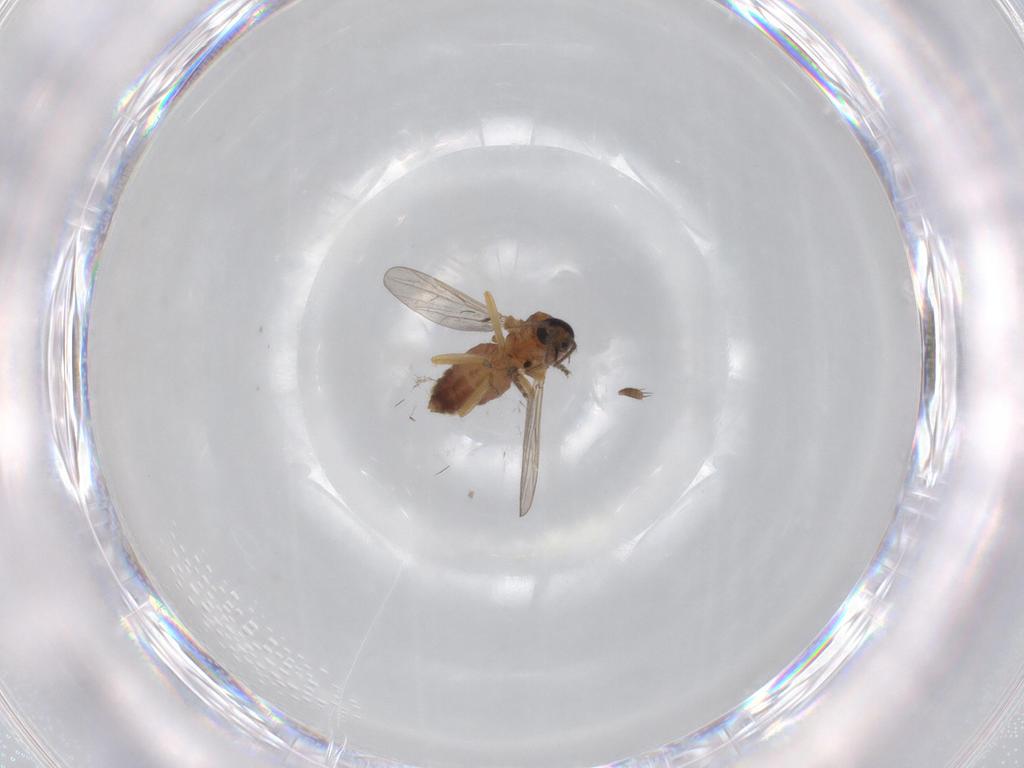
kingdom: Animalia
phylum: Arthropoda
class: Insecta
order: Diptera
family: Phoridae
